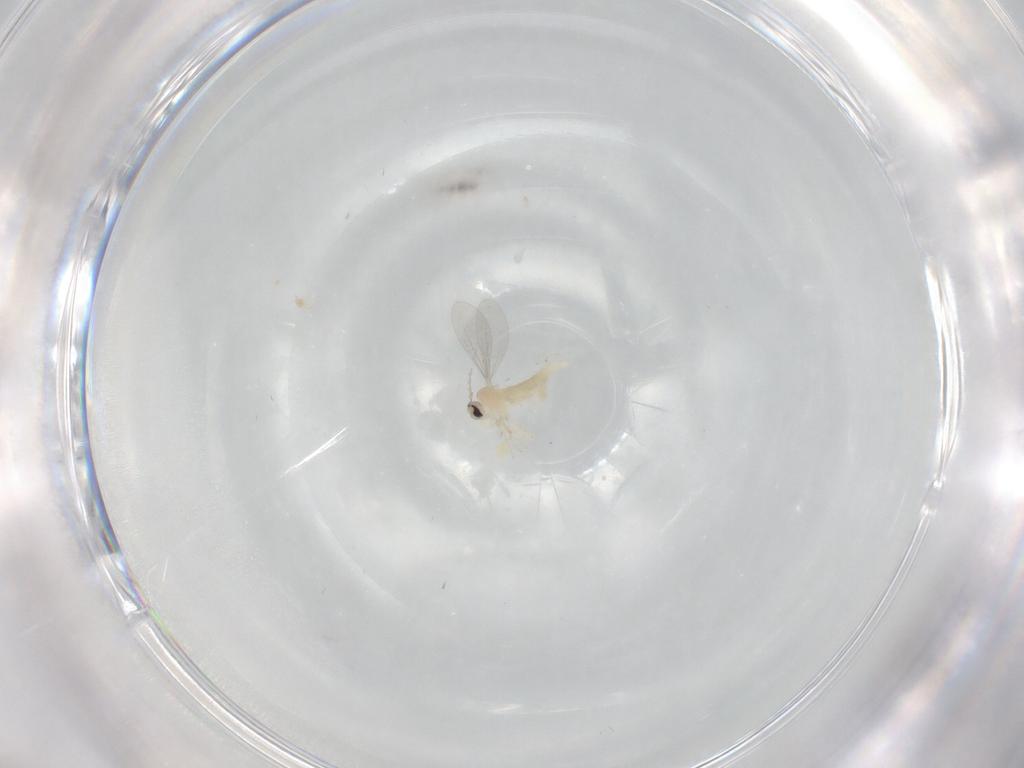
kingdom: Animalia
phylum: Arthropoda
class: Insecta
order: Diptera
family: Cecidomyiidae
